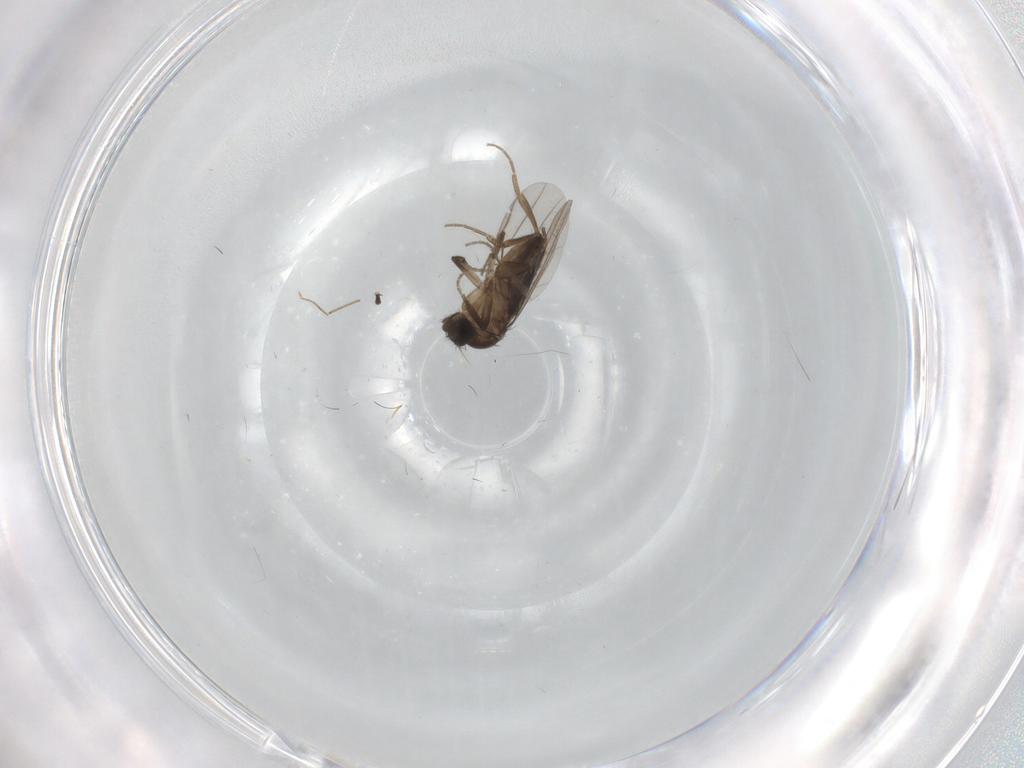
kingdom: Animalia
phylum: Arthropoda
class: Insecta
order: Diptera
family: Phoridae
